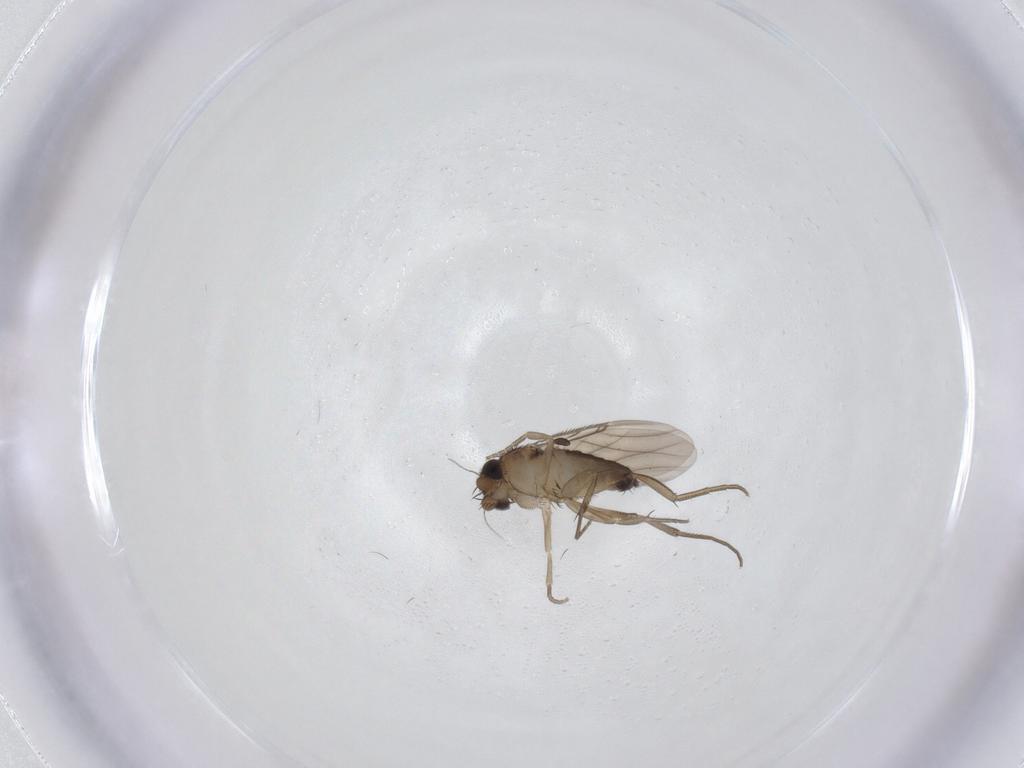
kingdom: Animalia
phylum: Arthropoda
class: Insecta
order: Diptera
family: Phoridae
